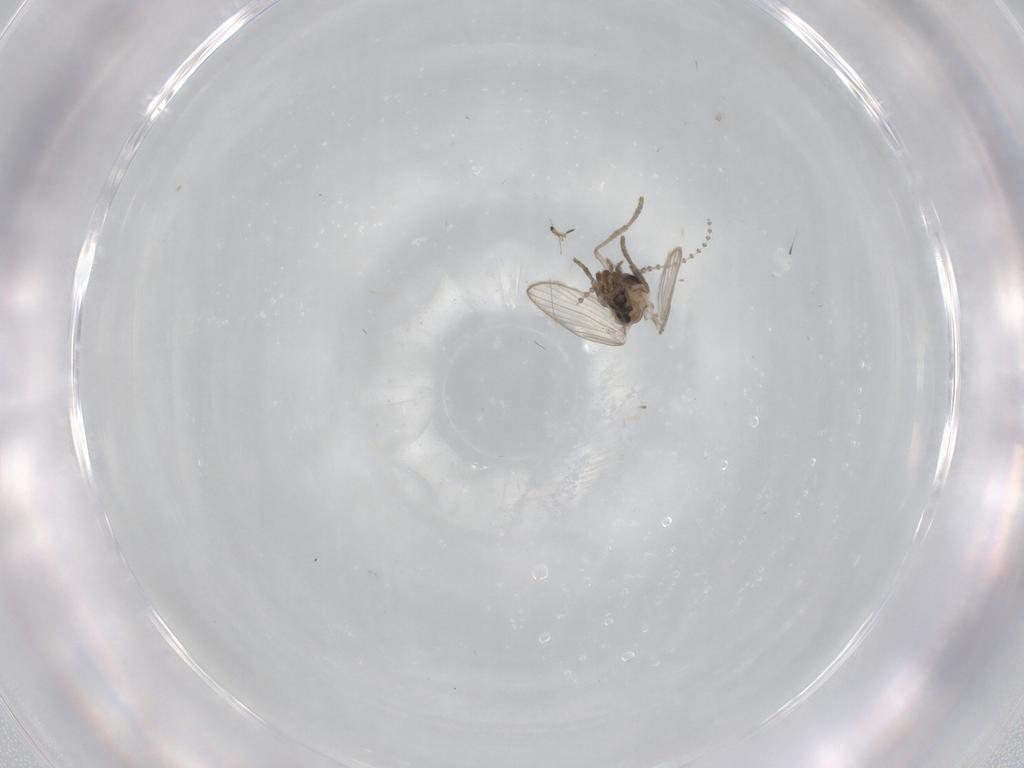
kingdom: Animalia
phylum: Arthropoda
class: Insecta
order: Diptera
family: Psychodidae
